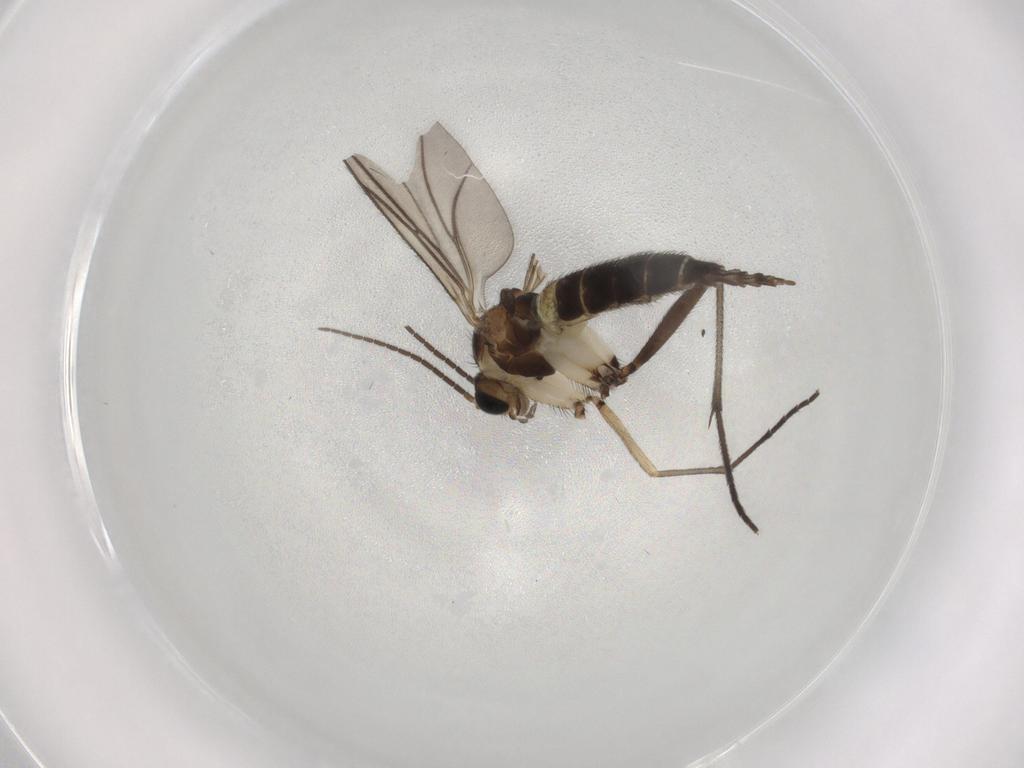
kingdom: Animalia
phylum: Arthropoda
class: Insecta
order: Diptera
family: Sciaridae
